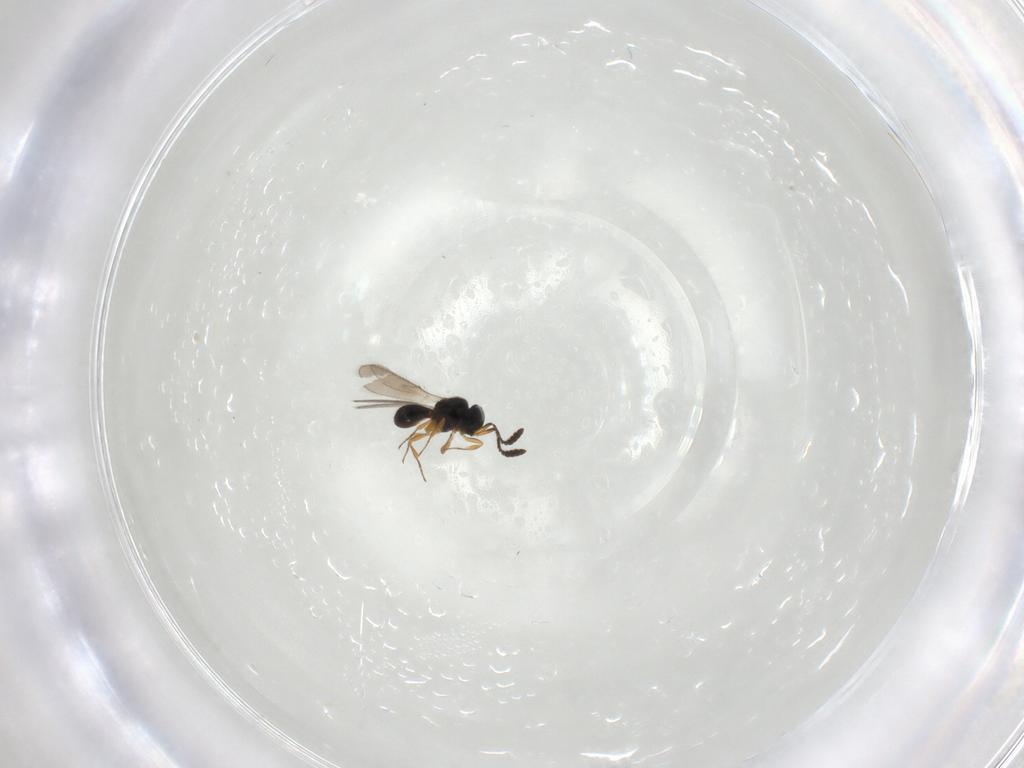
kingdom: Animalia
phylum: Arthropoda
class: Insecta
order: Hymenoptera
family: Scelionidae
